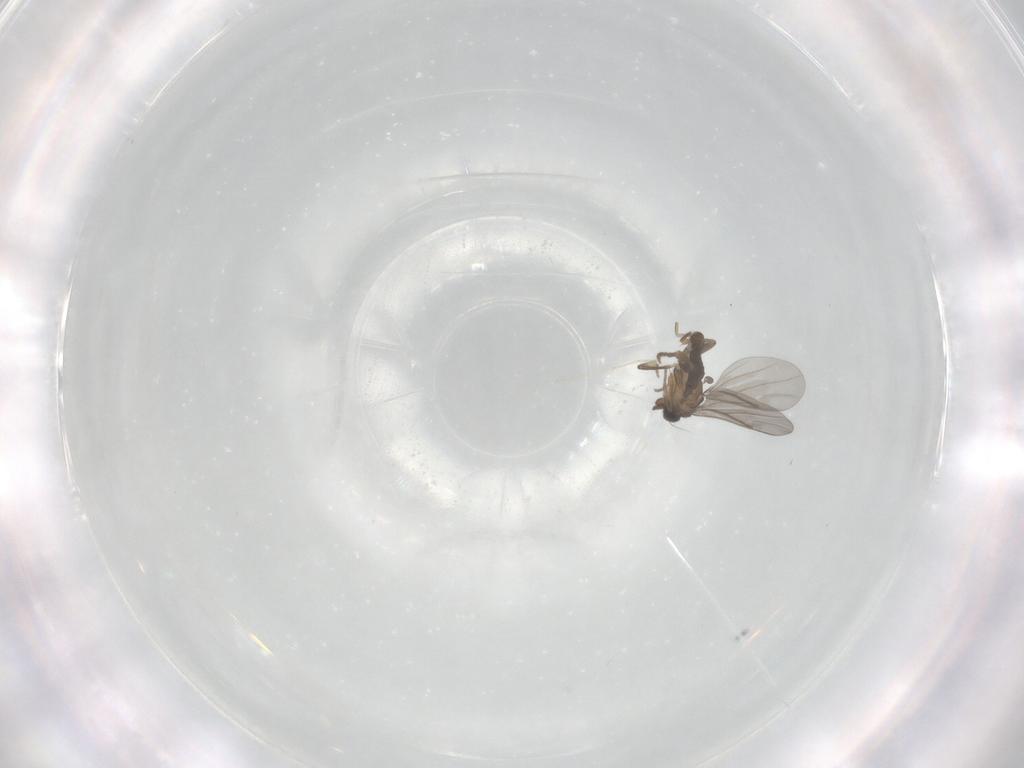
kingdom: Animalia
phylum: Arthropoda
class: Insecta
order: Diptera
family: Cecidomyiidae
